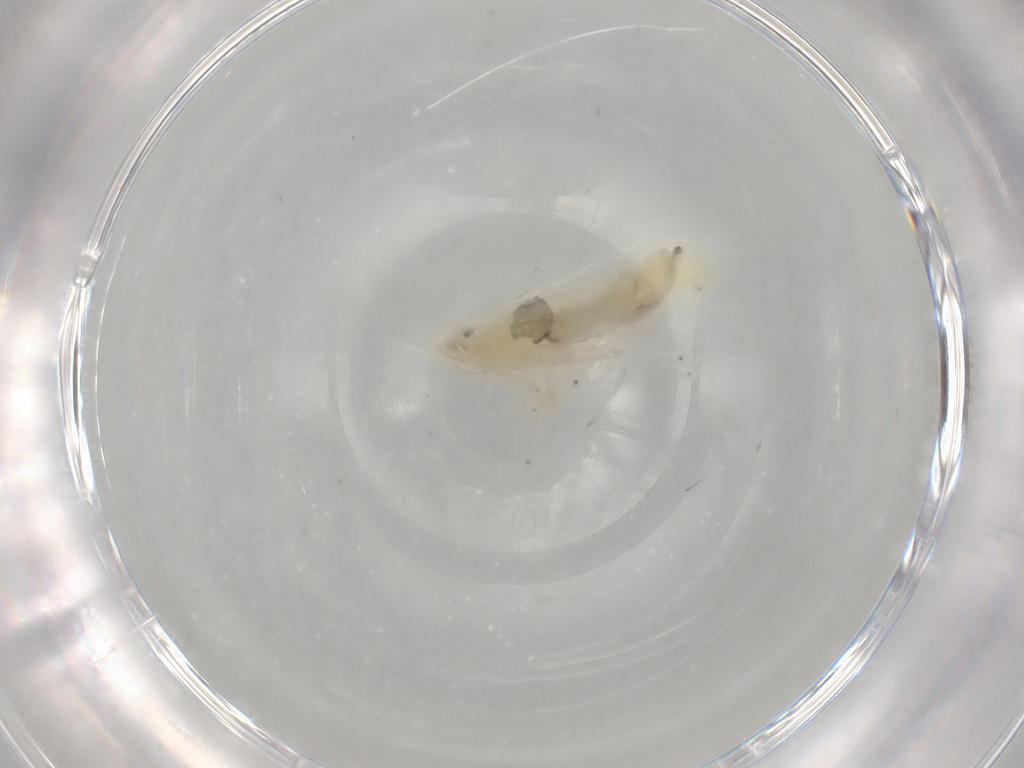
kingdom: Animalia
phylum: Arthropoda
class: Insecta
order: Hemiptera
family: Cicadellidae
